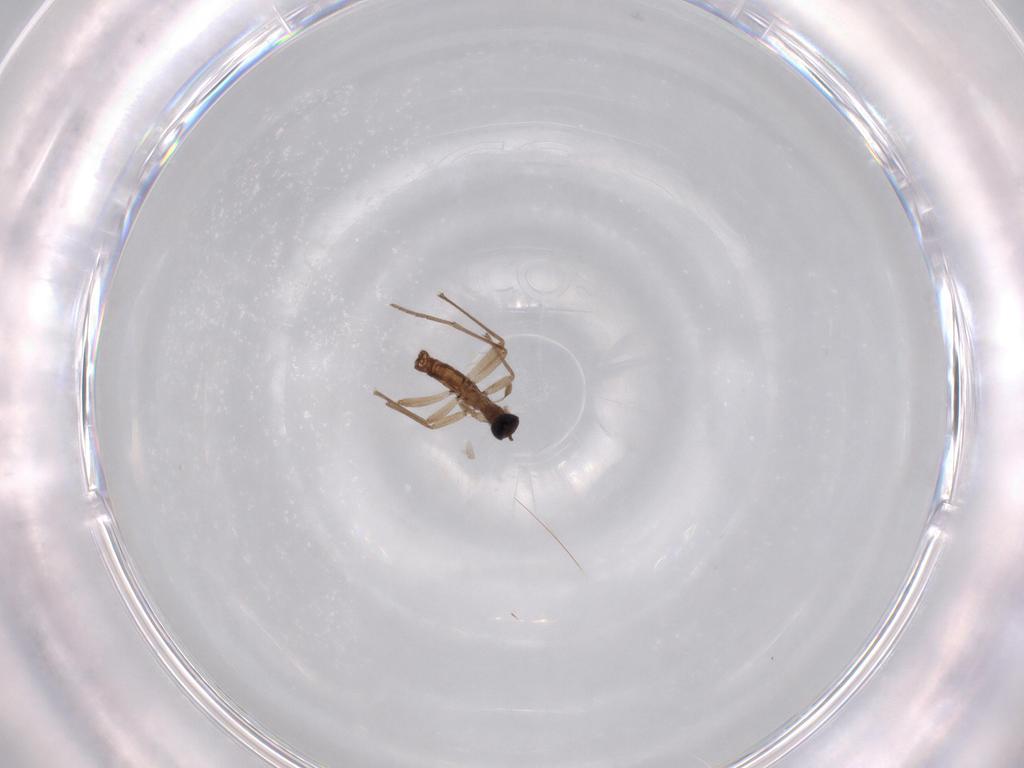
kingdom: Animalia
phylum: Arthropoda
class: Insecta
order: Diptera
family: Sciaridae
